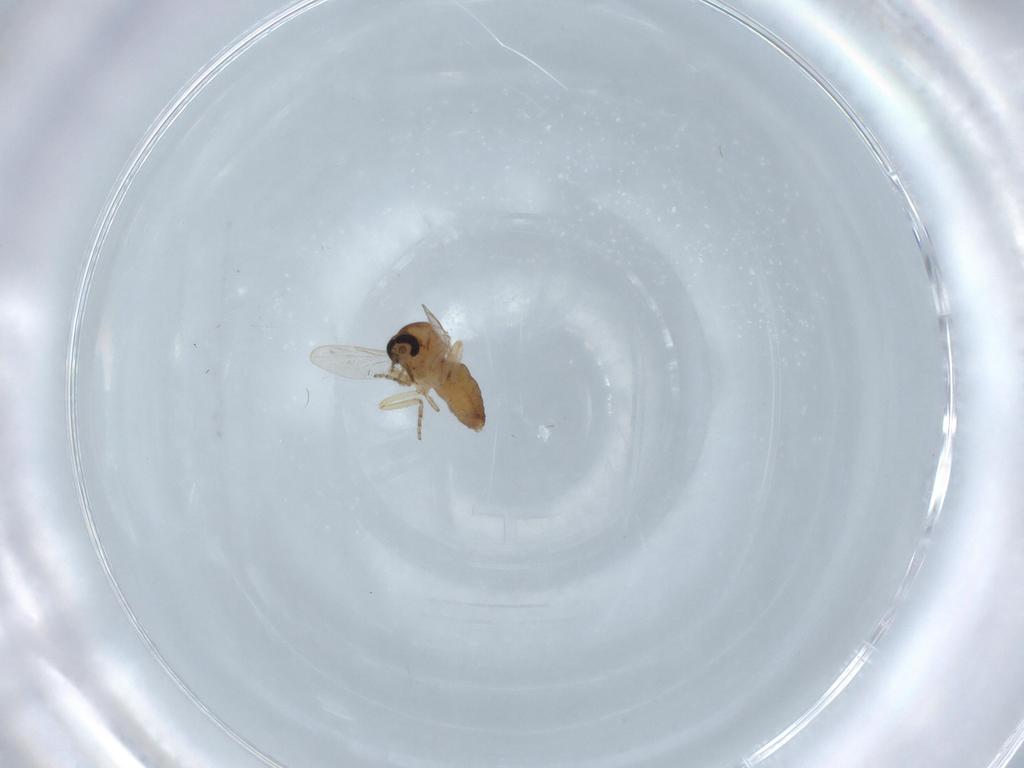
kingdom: Animalia
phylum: Arthropoda
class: Insecta
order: Diptera
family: Ceratopogonidae
